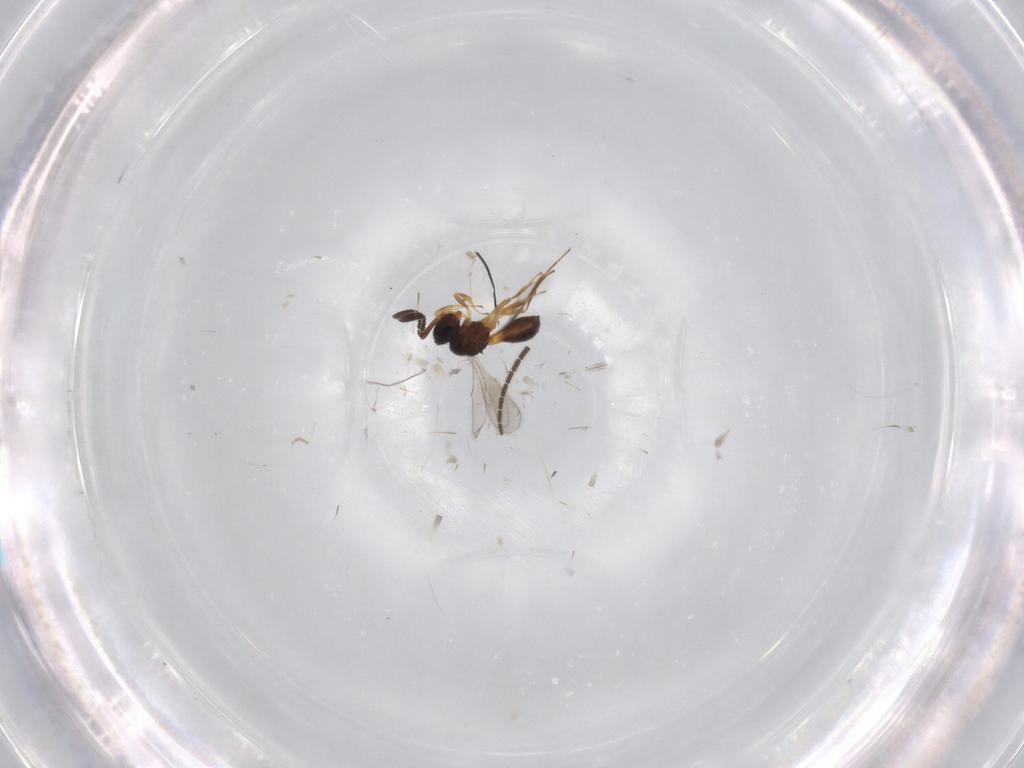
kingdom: Animalia
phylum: Arthropoda
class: Insecta
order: Hymenoptera
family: Scelionidae
